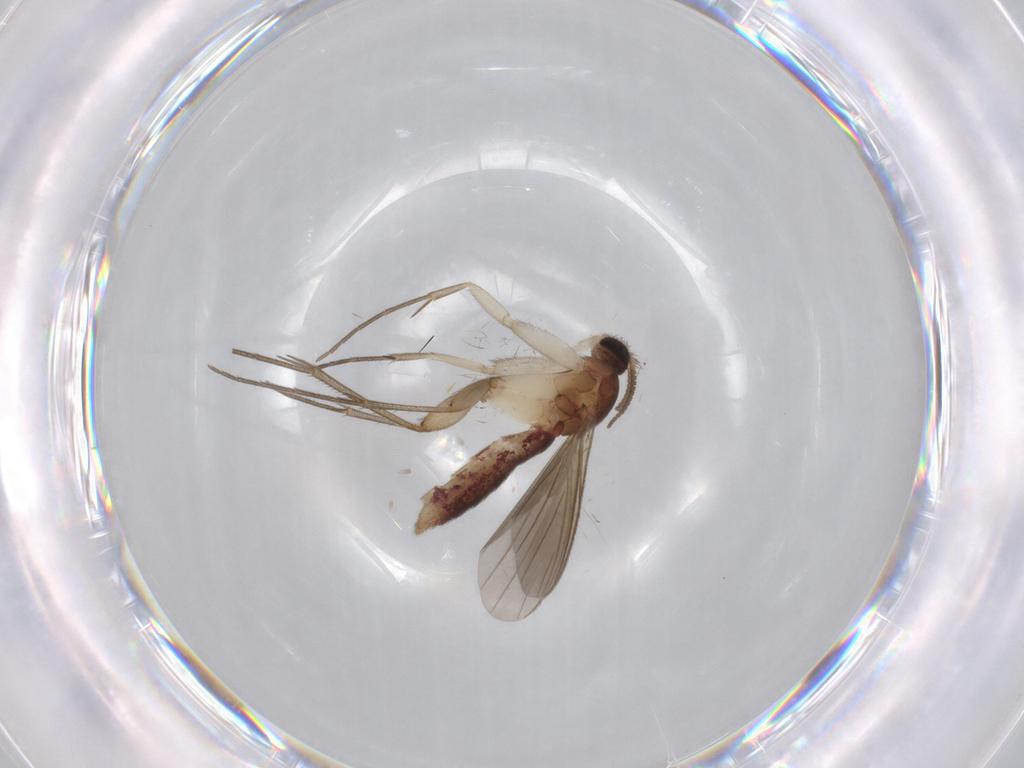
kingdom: Animalia
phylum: Arthropoda
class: Insecta
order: Diptera
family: Mycetophilidae
